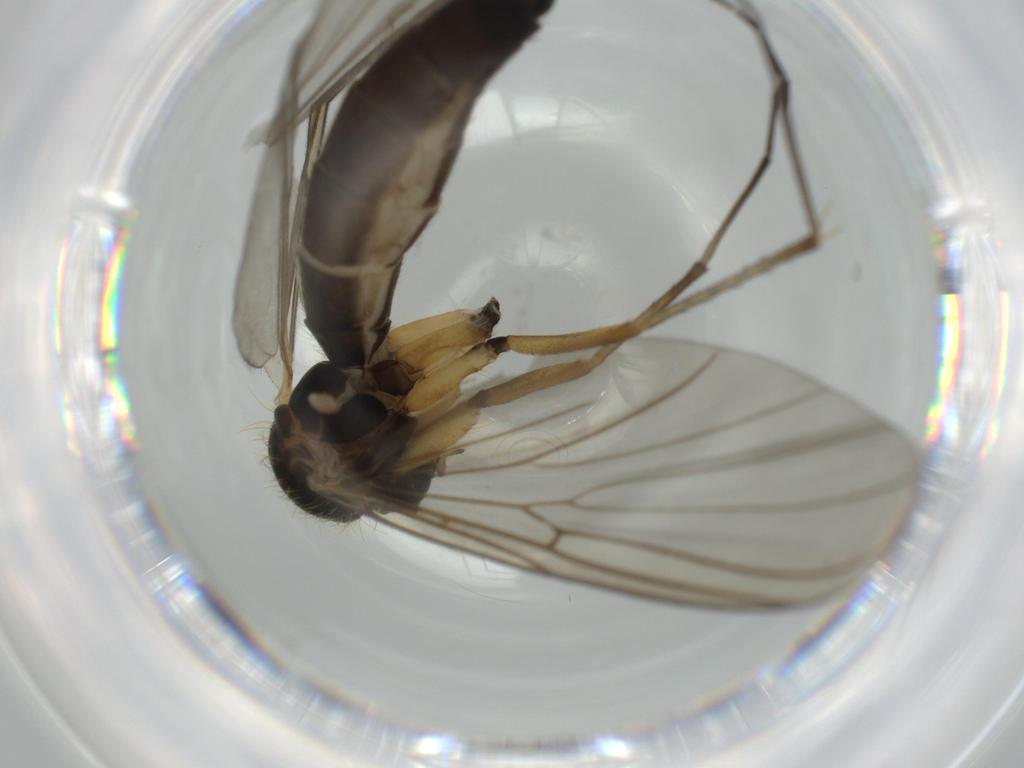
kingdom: Animalia
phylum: Arthropoda
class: Insecta
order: Diptera
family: Mycetophilidae
